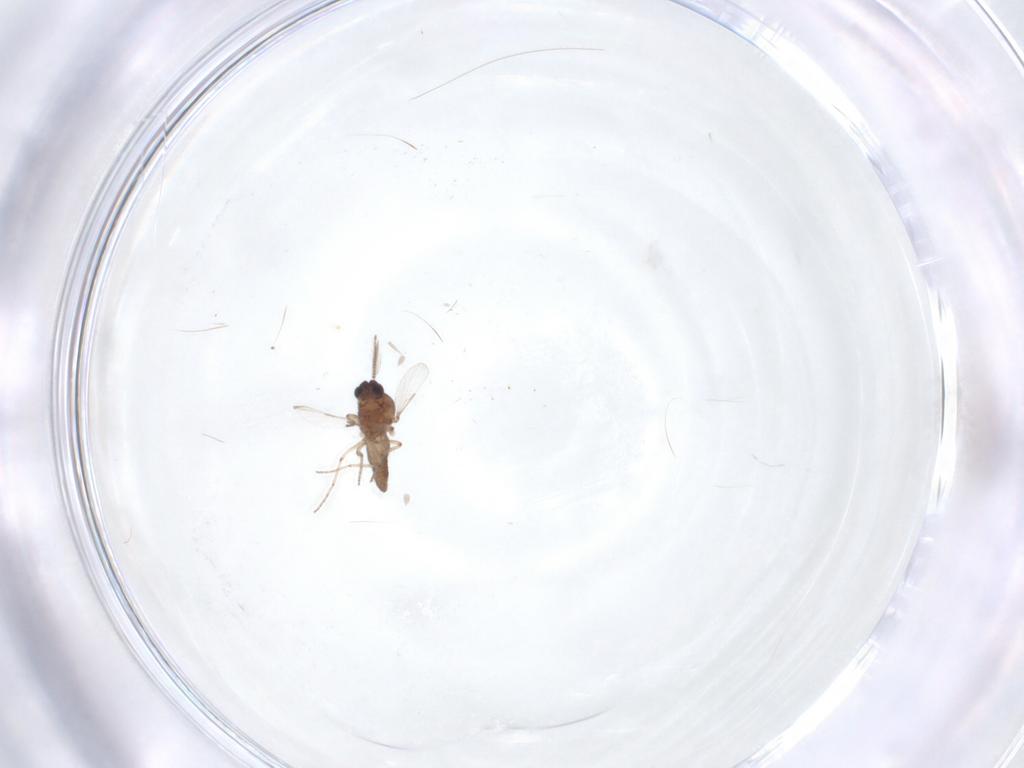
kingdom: Animalia
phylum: Arthropoda
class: Insecta
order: Diptera
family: Ceratopogonidae
